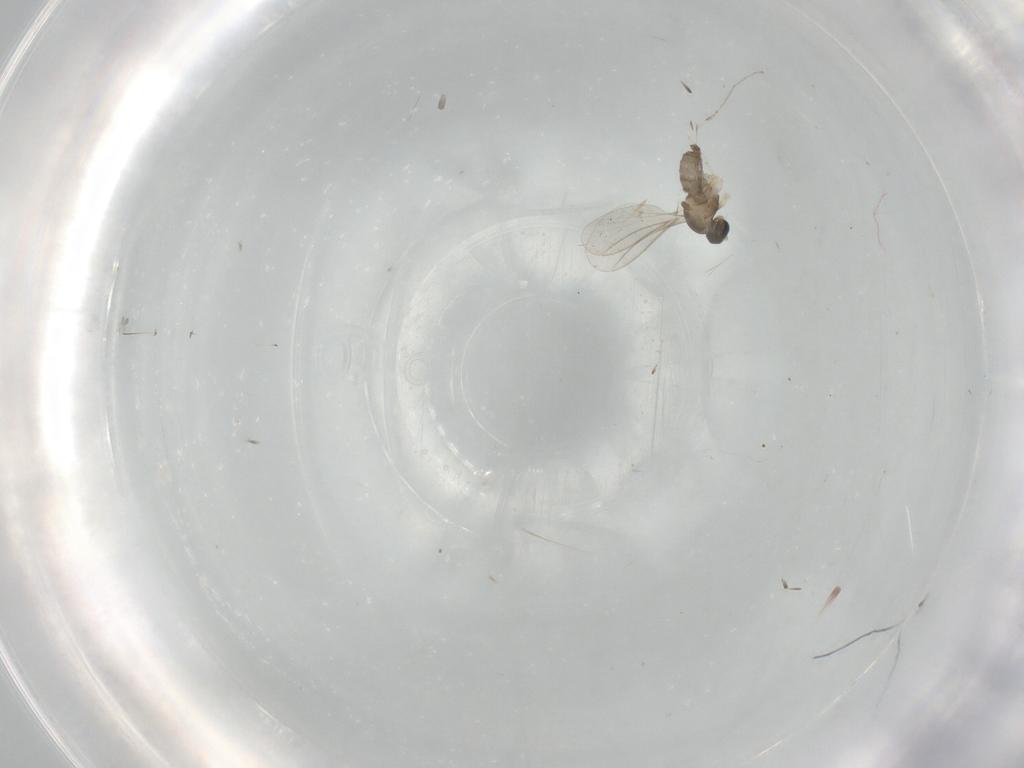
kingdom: Animalia
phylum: Arthropoda
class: Insecta
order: Diptera
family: Cecidomyiidae
